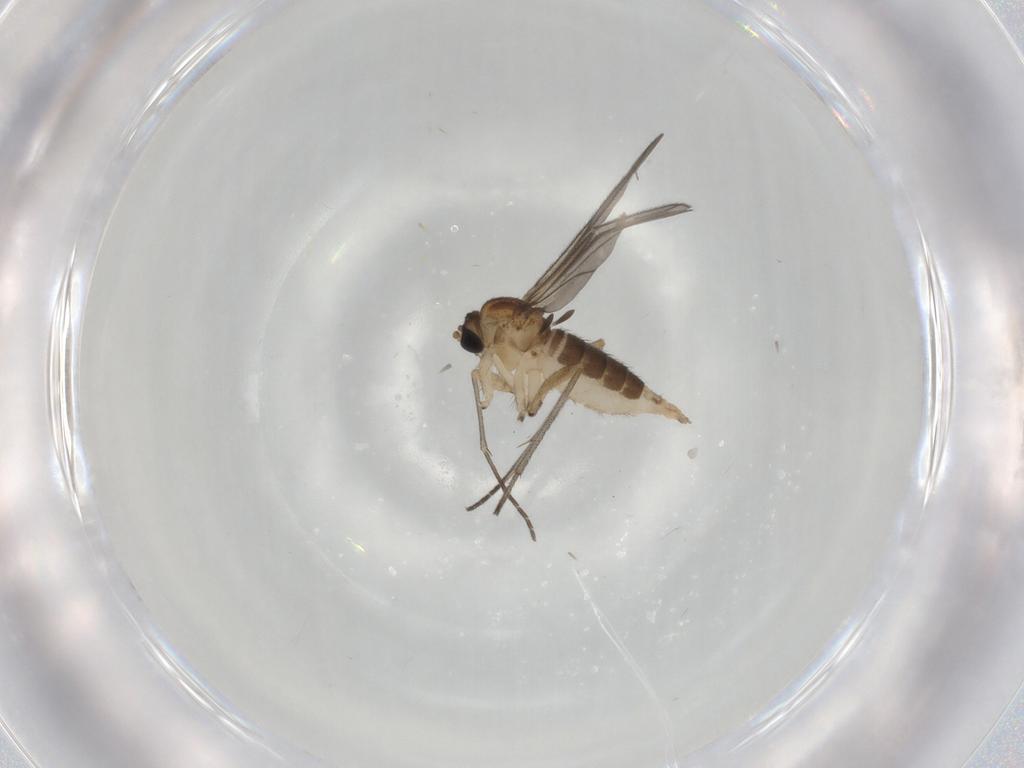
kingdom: Animalia
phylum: Arthropoda
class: Insecta
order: Diptera
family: Sciaridae
